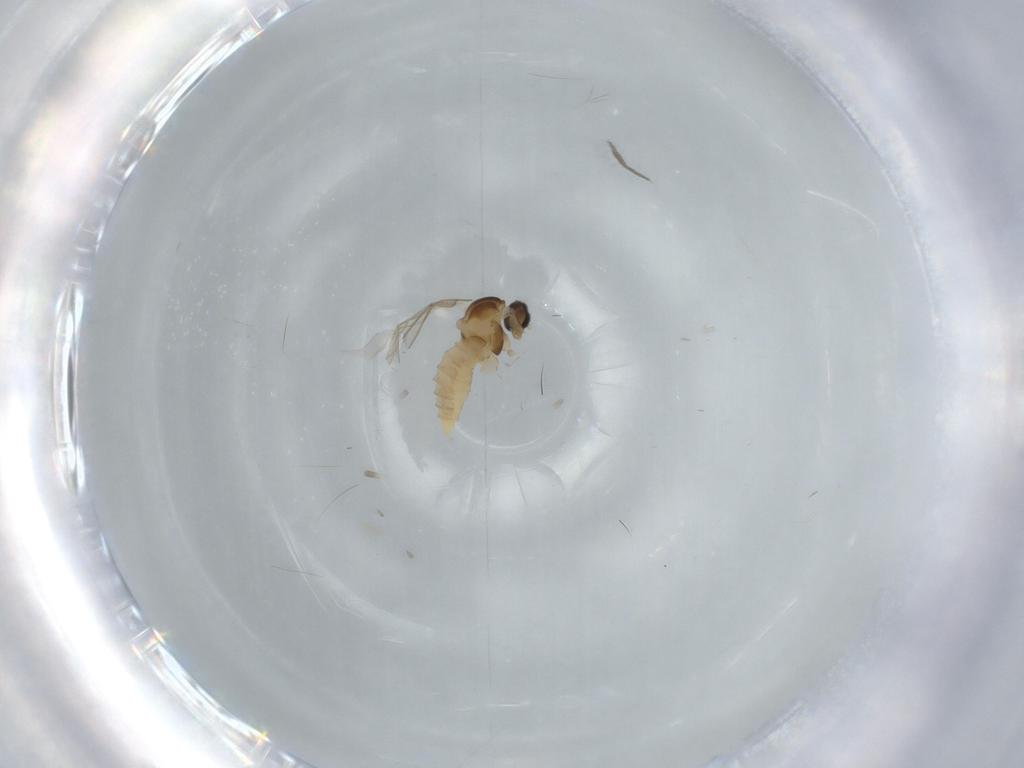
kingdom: Animalia
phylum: Arthropoda
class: Insecta
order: Diptera
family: Cecidomyiidae
